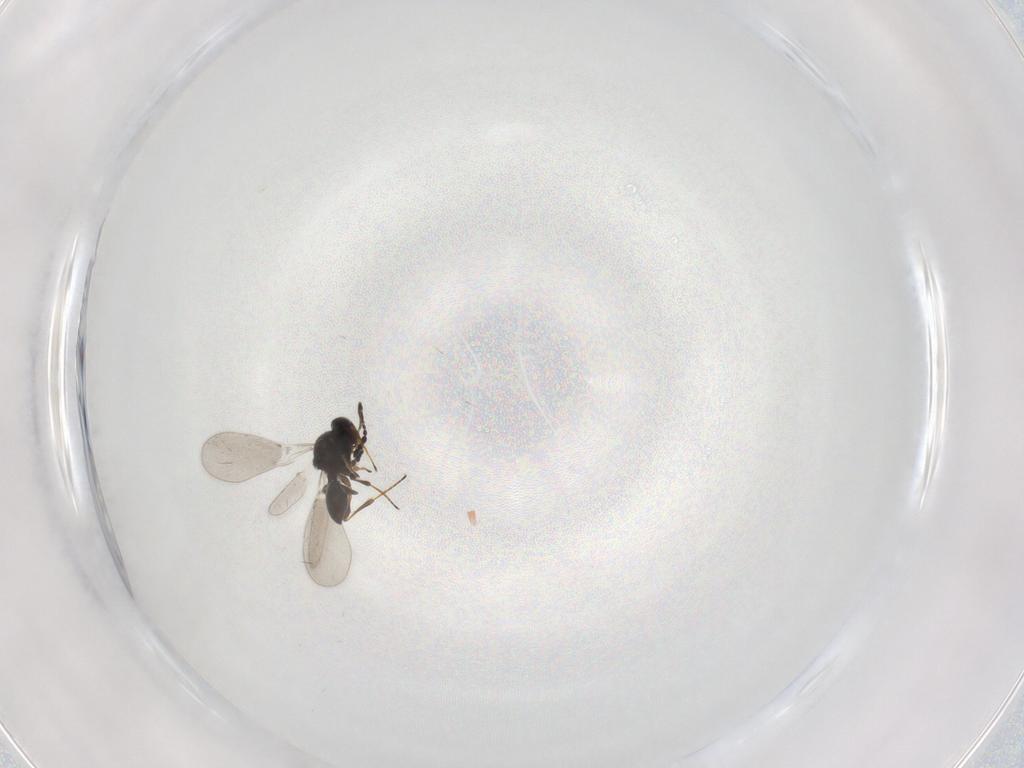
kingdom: Animalia
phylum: Arthropoda
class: Insecta
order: Hymenoptera
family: Platygastridae
